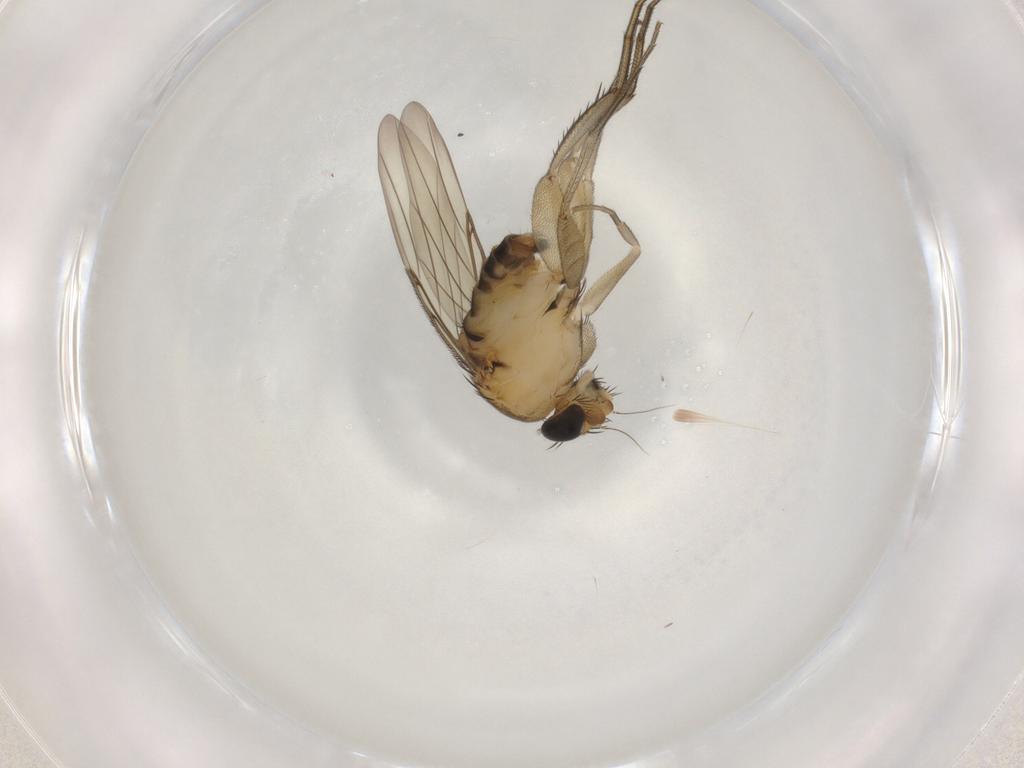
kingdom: Animalia
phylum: Arthropoda
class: Insecta
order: Diptera
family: Phoridae
